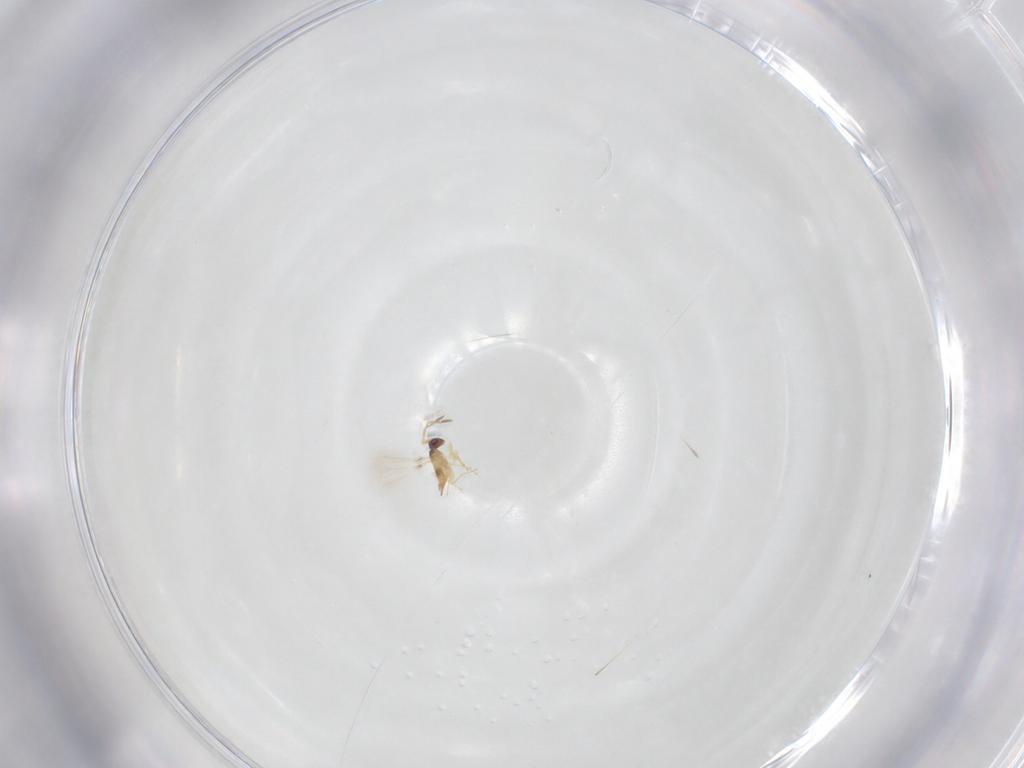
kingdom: Animalia
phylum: Arthropoda
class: Insecta
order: Hymenoptera
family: Mymaridae
